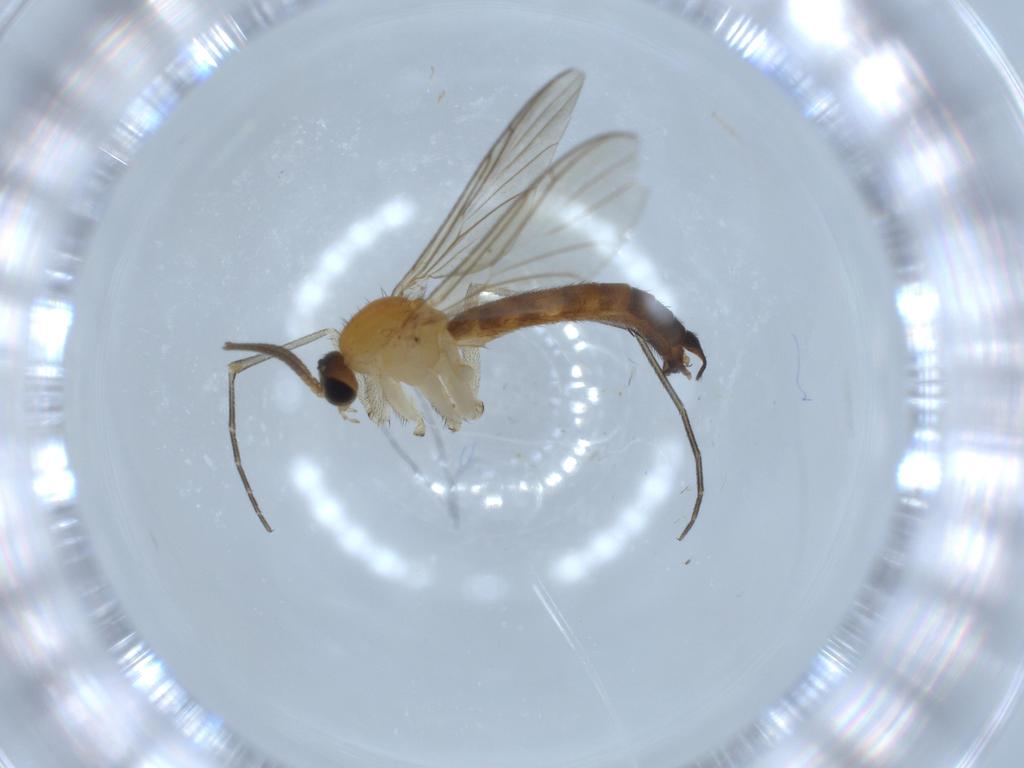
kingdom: Animalia
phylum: Arthropoda
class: Insecta
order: Diptera
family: Keroplatidae
